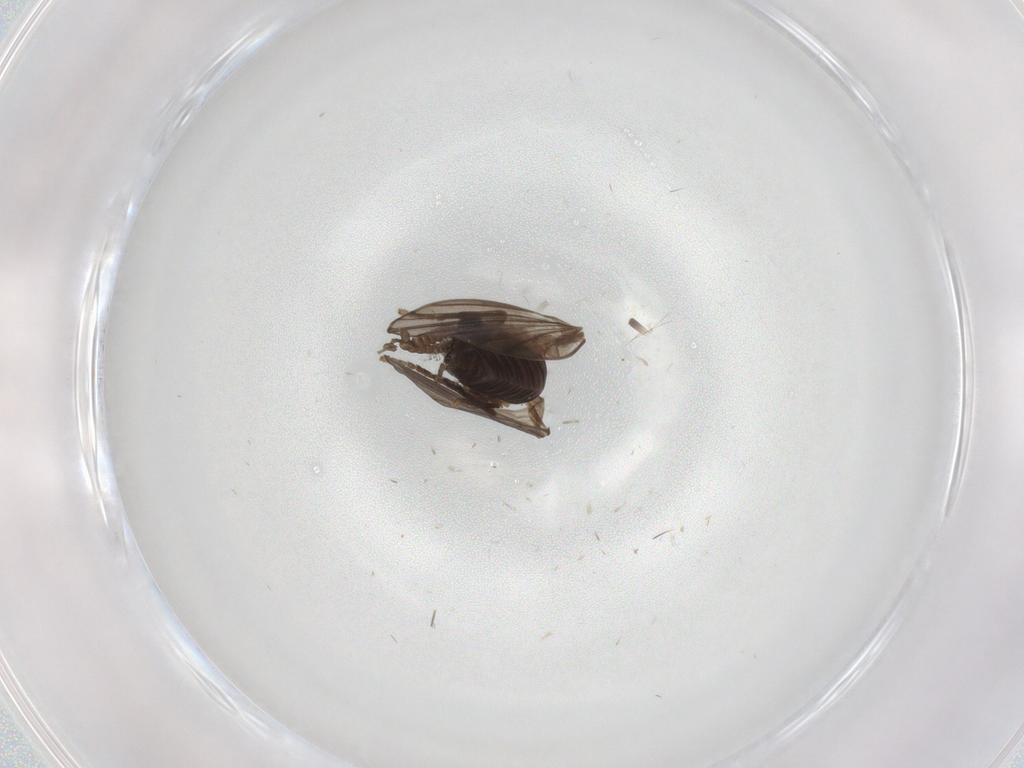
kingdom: Animalia
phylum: Arthropoda
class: Insecta
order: Diptera
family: Psychodidae
